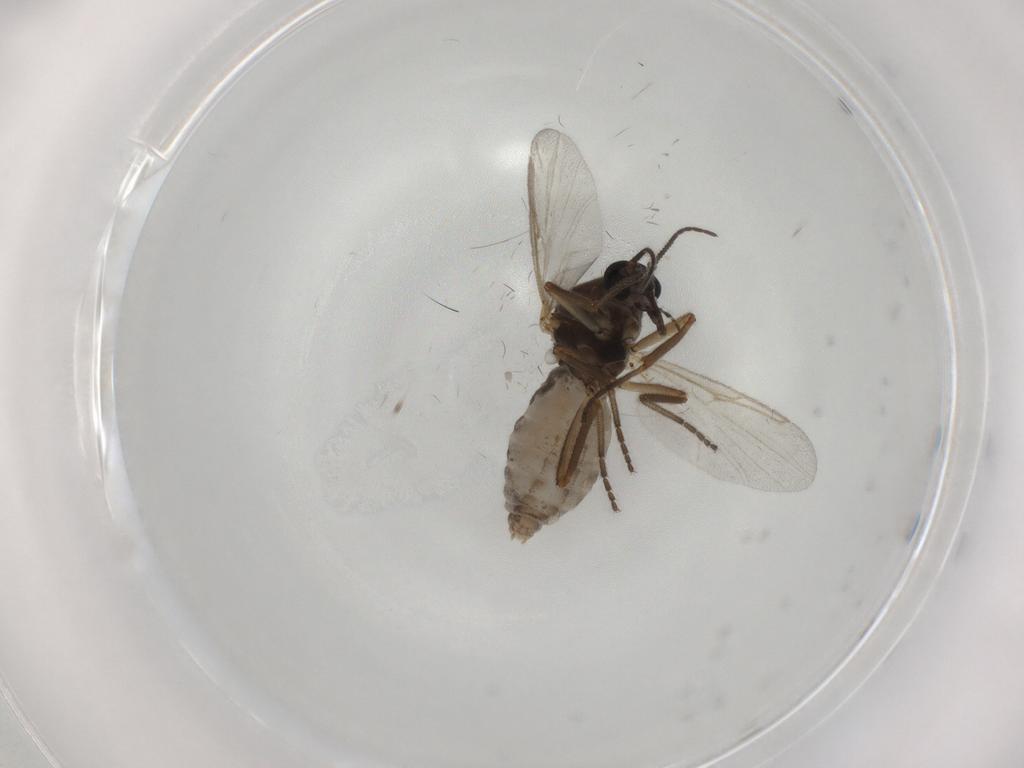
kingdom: Animalia
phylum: Arthropoda
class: Insecta
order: Diptera
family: Ceratopogonidae
